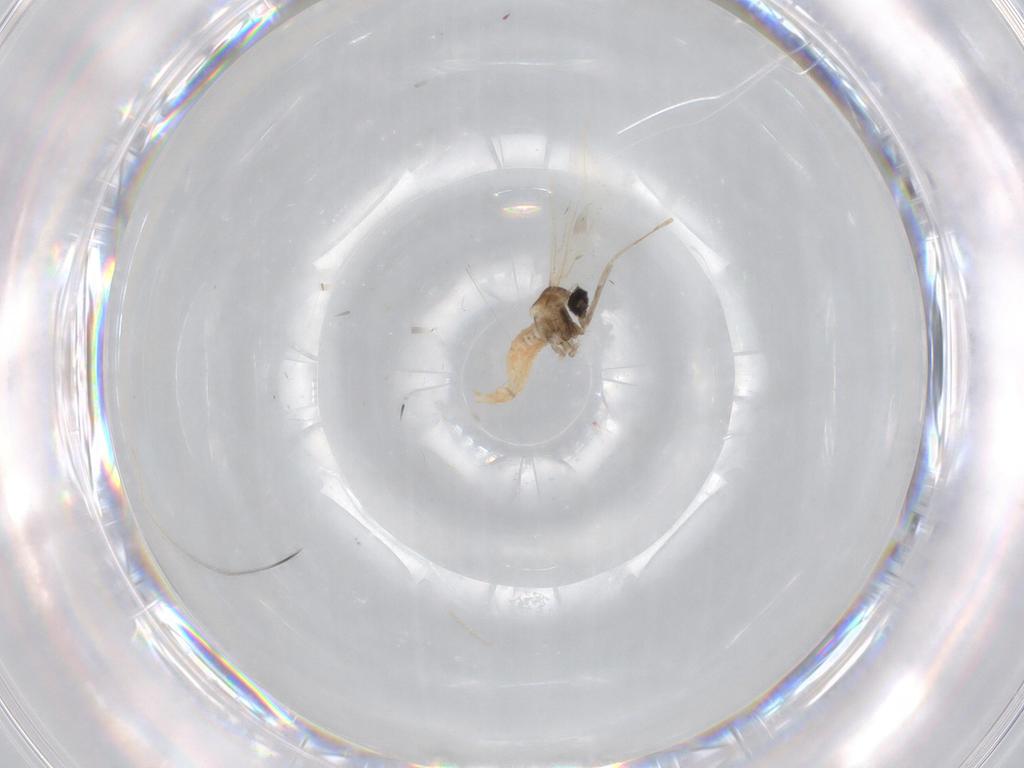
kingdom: Animalia
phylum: Arthropoda
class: Insecta
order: Diptera
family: Cecidomyiidae
